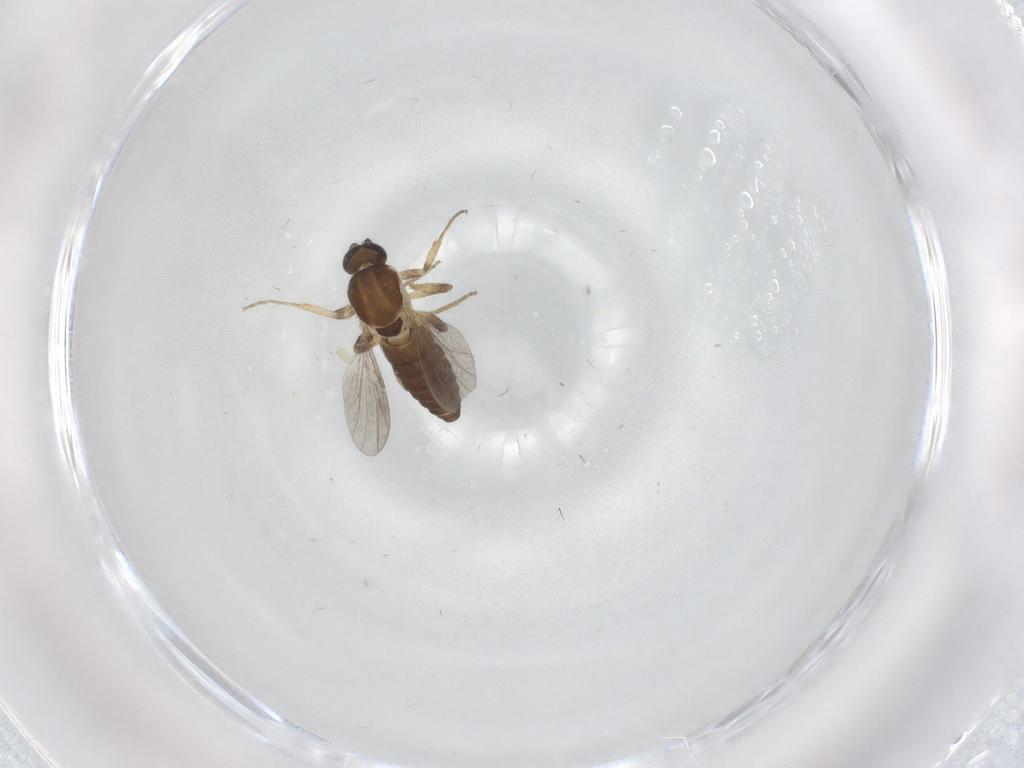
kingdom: Animalia
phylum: Arthropoda
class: Insecta
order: Diptera
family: Ceratopogonidae
